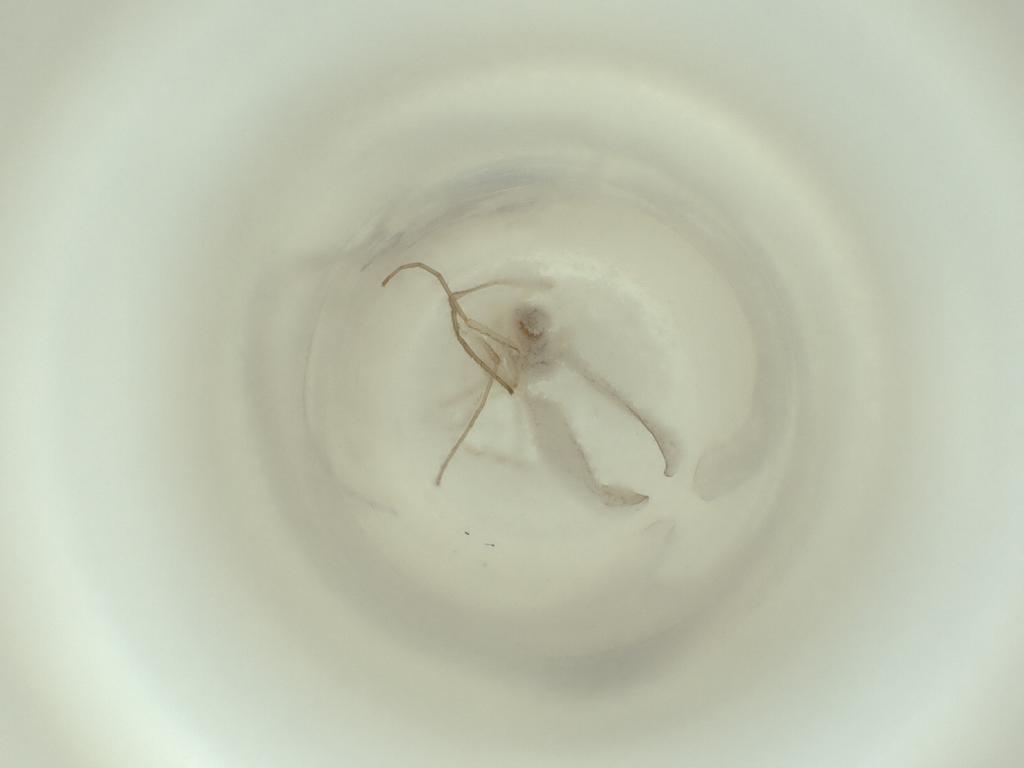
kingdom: Animalia
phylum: Arthropoda
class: Insecta
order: Diptera
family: Cecidomyiidae
